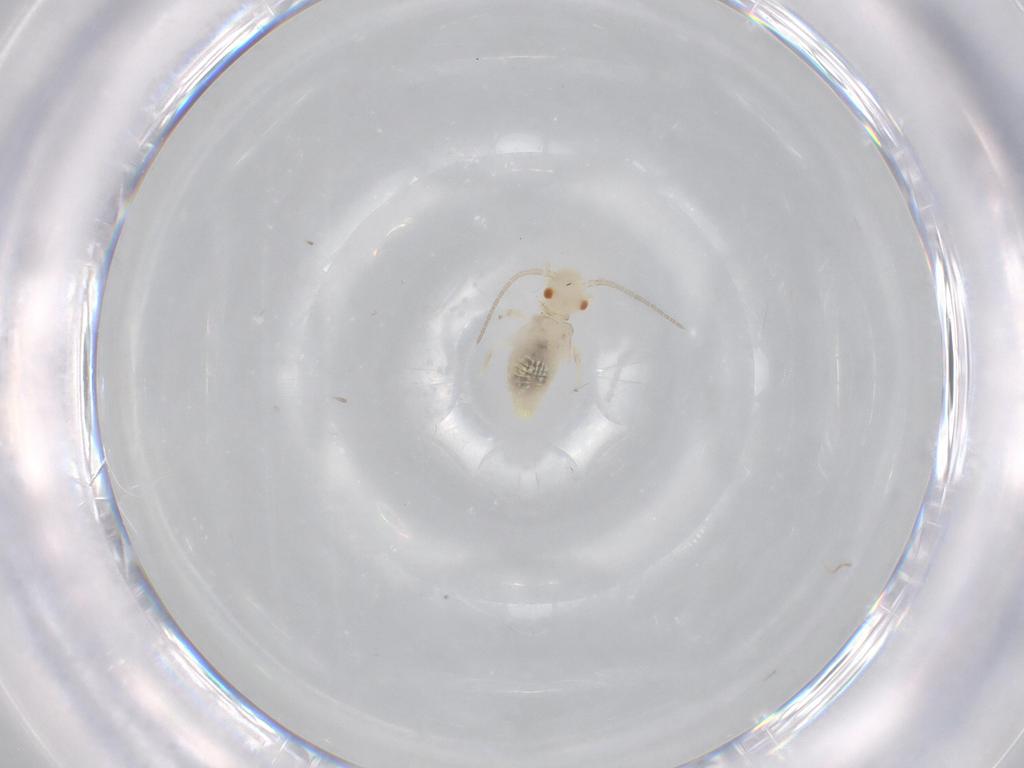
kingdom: Animalia
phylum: Arthropoda
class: Insecta
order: Psocodea
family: Caeciliusidae
